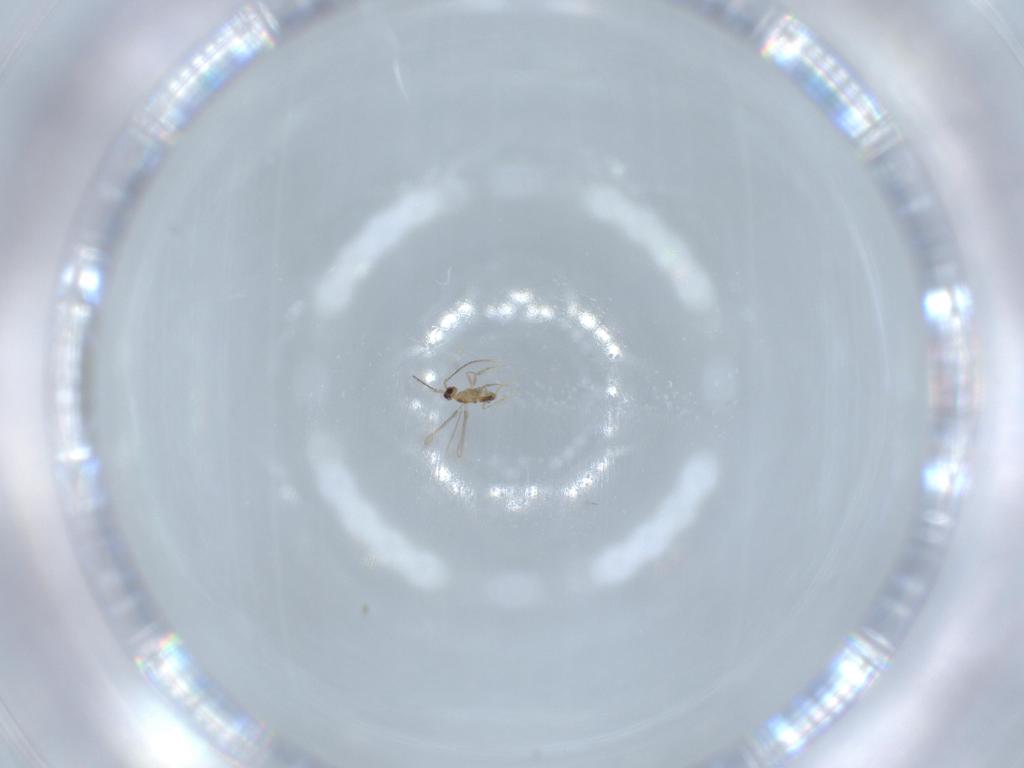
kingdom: Animalia
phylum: Arthropoda
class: Insecta
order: Hymenoptera
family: Mymaridae
